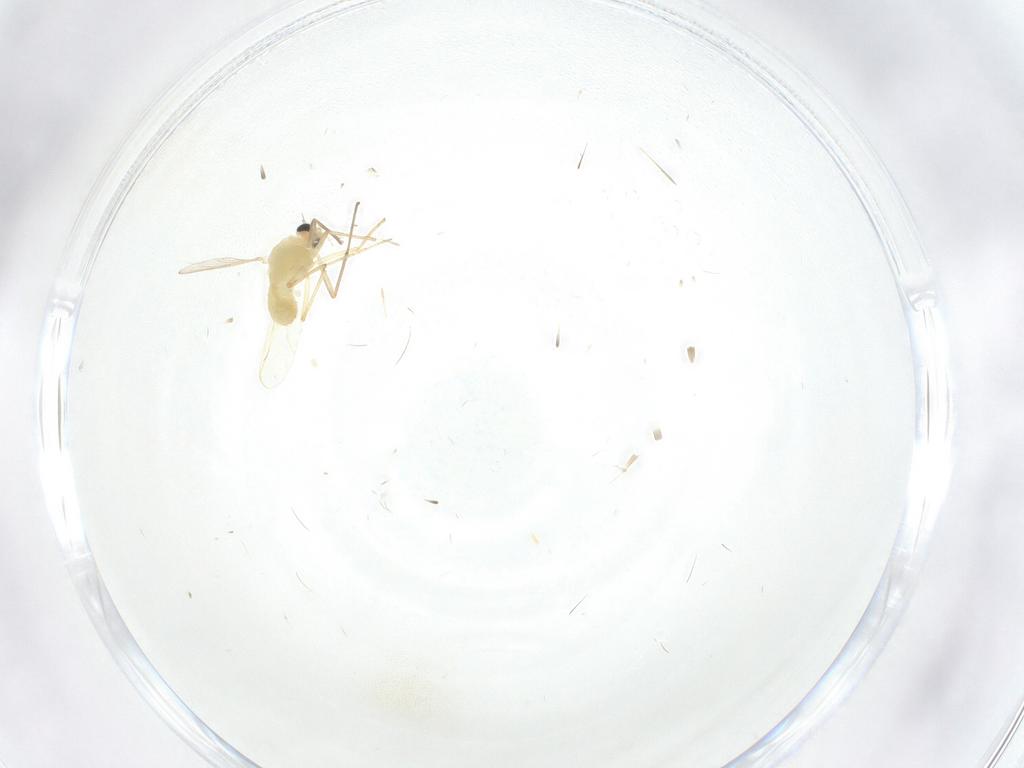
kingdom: Animalia
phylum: Arthropoda
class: Insecta
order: Diptera
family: Chironomidae
